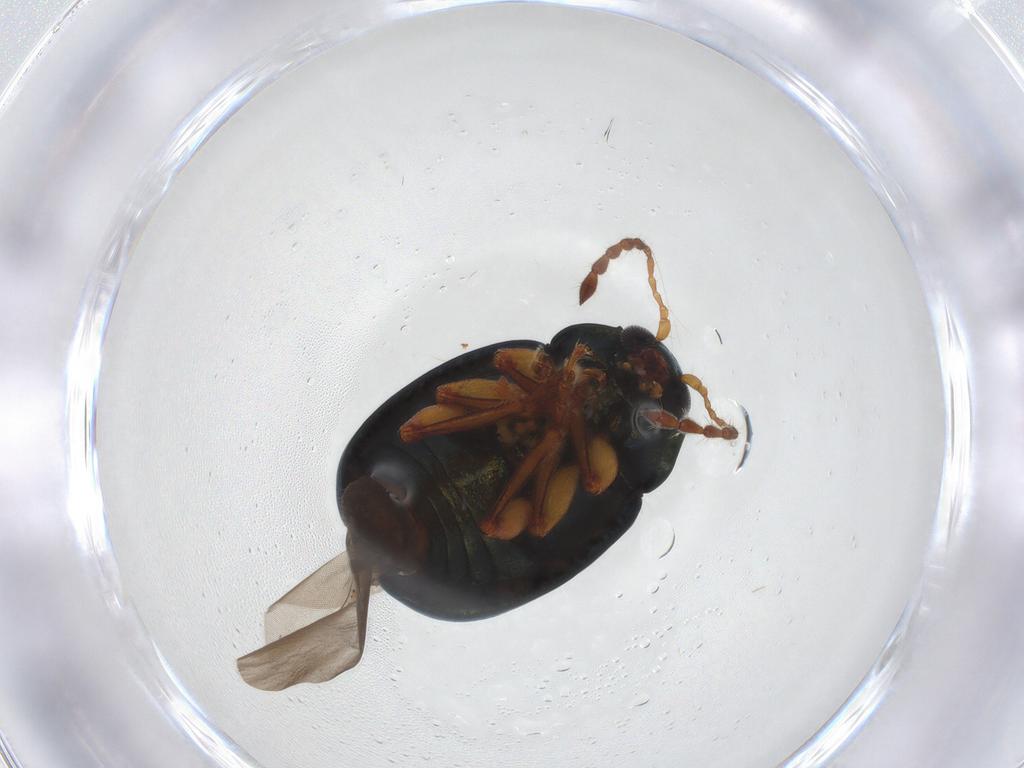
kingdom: Animalia
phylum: Arthropoda
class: Insecta
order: Coleoptera
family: Chrysomelidae
